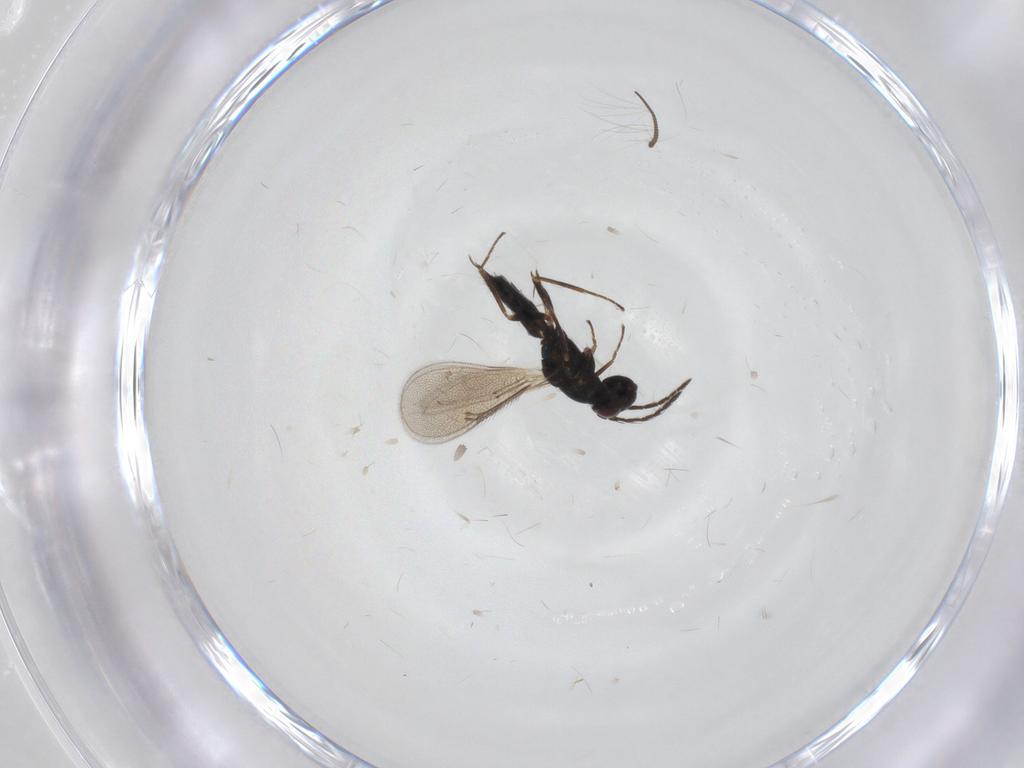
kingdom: Animalia
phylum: Arthropoda
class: Insecta
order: Hymenoptera
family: Eulophidae
